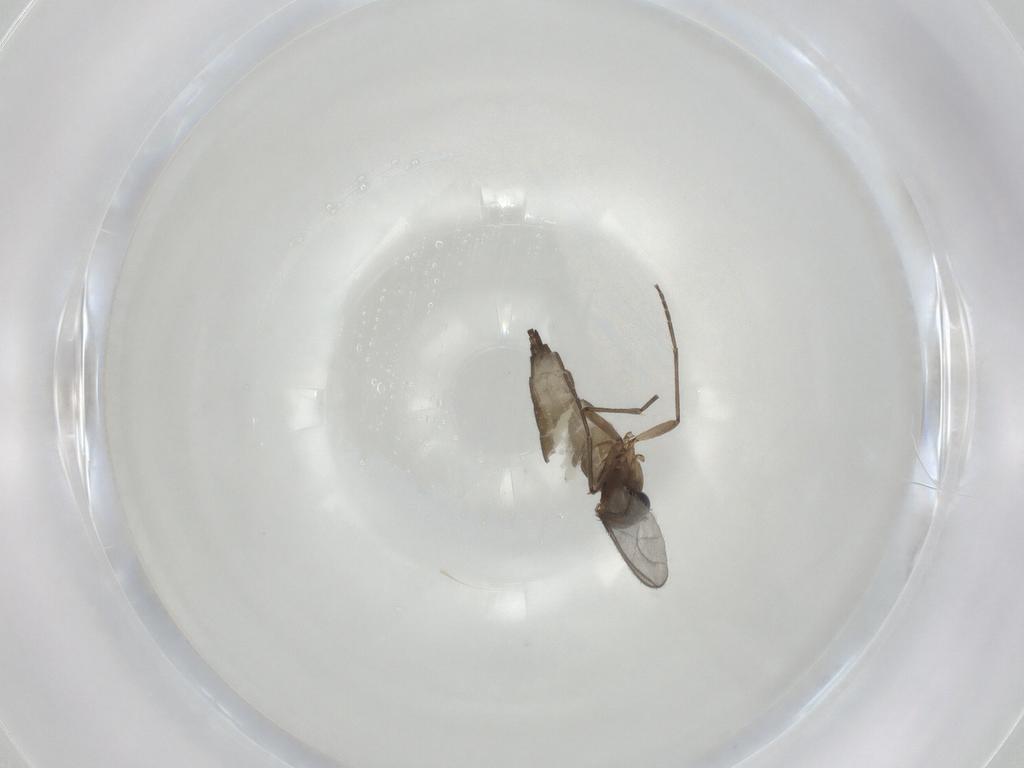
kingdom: Animalia
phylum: Arthropoda
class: Insecta
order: Diptera
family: Sciaridae
